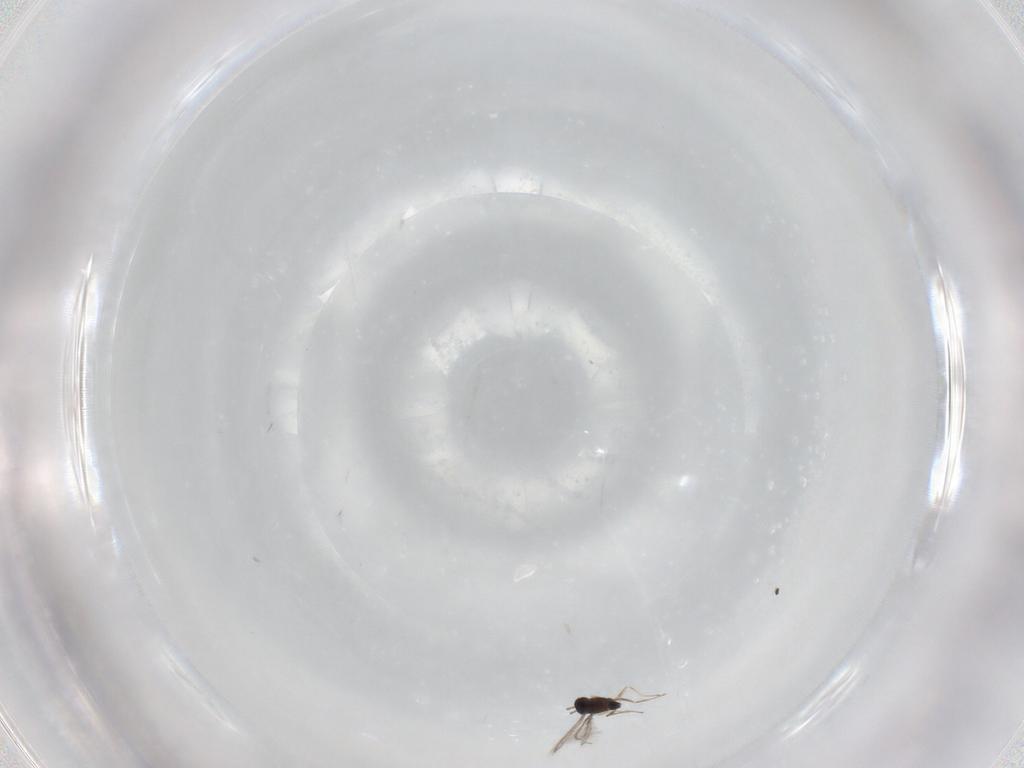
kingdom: Animalia
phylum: Arthropoda
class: Insecta
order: Hymenoptera
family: Mymaridae
